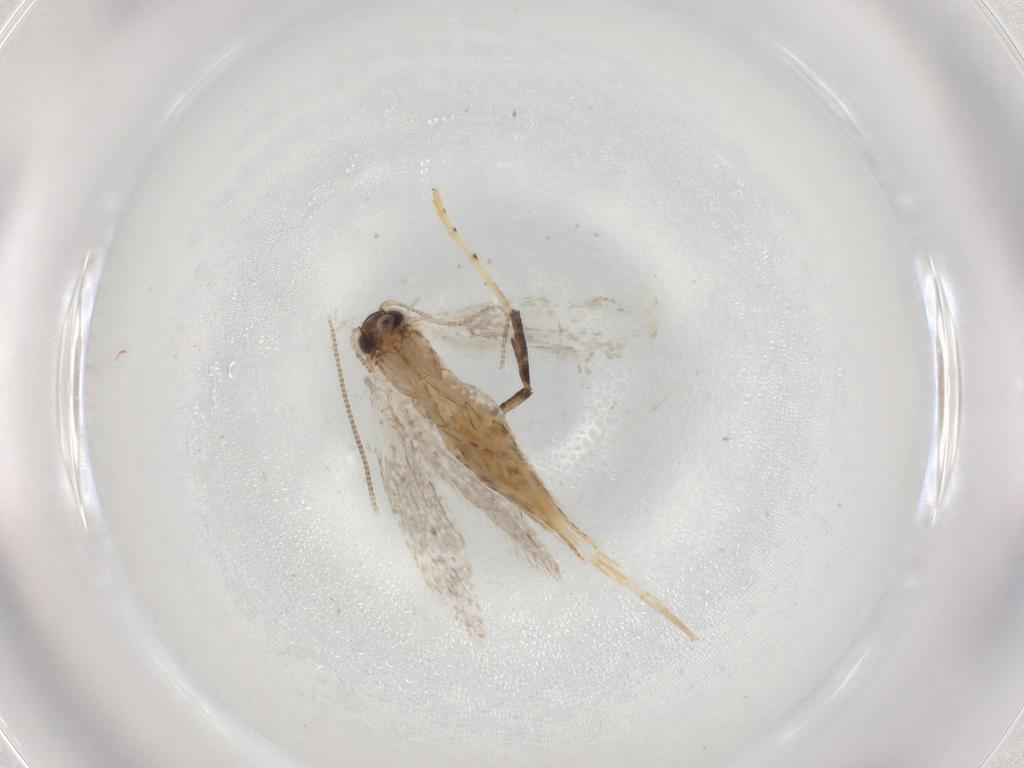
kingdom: Animalia
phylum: Arthropoda
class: Insecta
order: Lepidoptera
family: Gracillariidae
